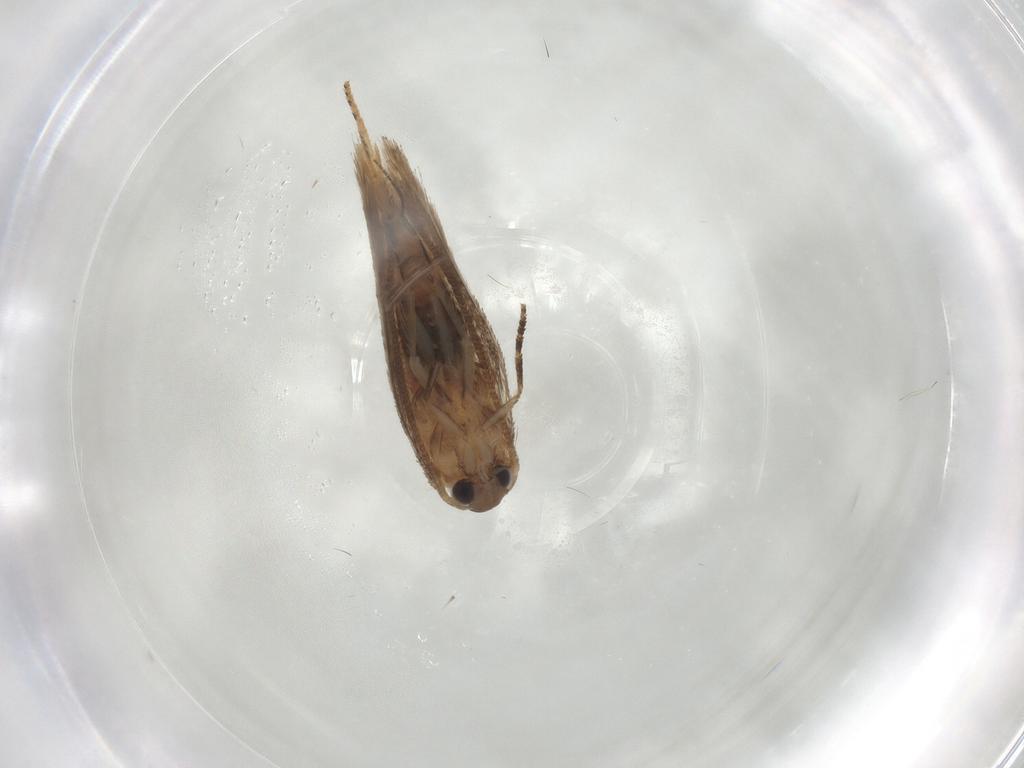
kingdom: Animalia
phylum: Arthropoda
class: Insecta
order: Lepidoptera
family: Elachistidae
